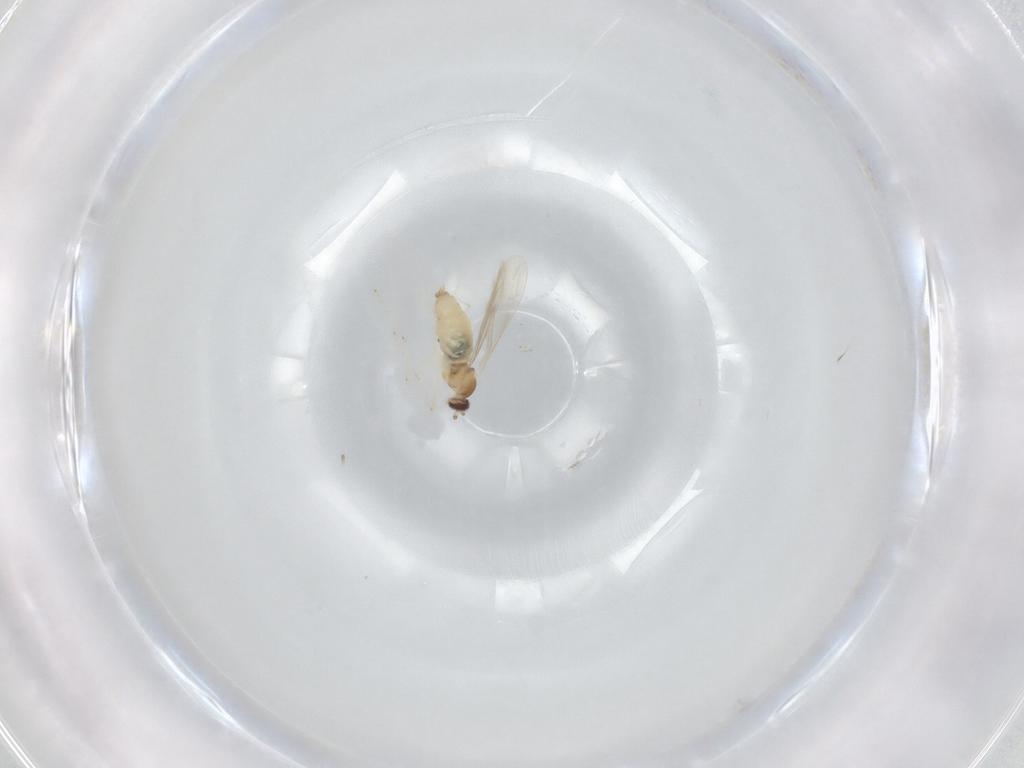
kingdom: Animalia
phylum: Arthropoda
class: Insecta
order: Diptera
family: Cecidomyiidae
